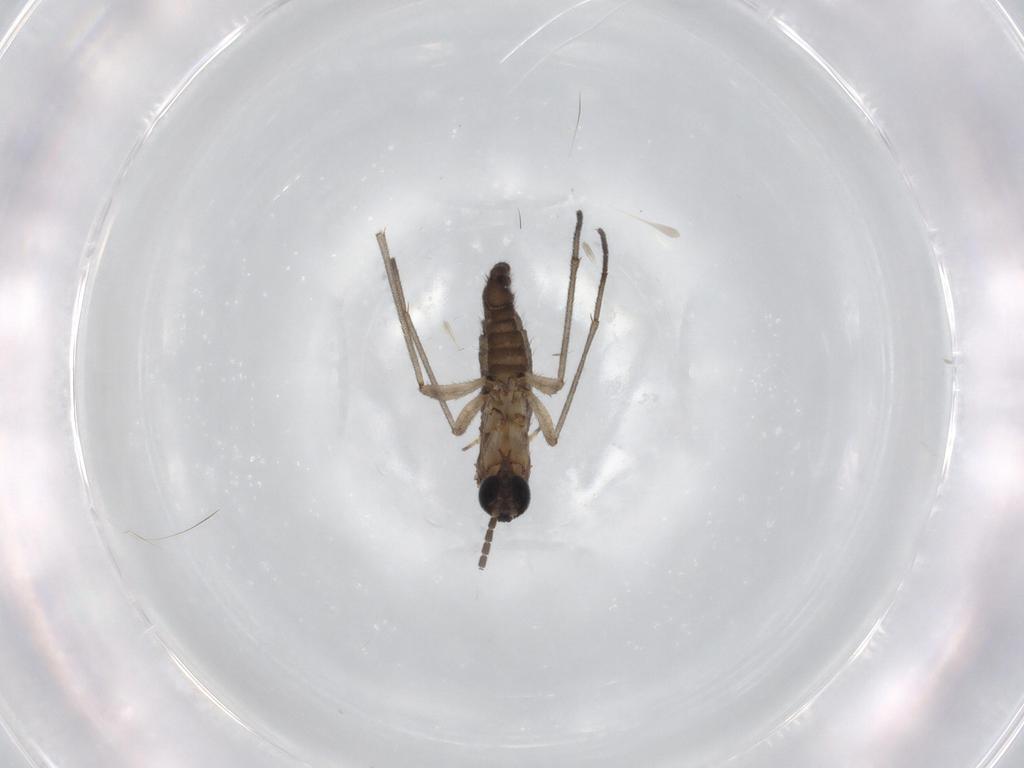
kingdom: Animalia
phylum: Arthropoda
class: Insecta
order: Diptera
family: Sciaridae
